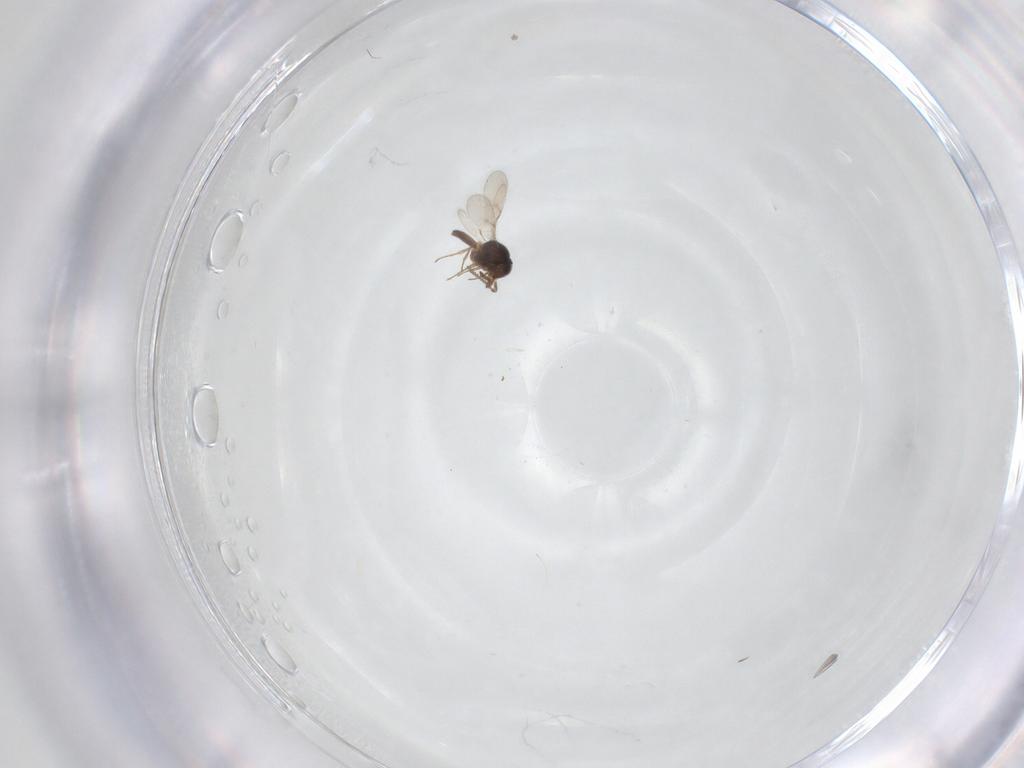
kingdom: Animalia
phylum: Arthropoda
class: Insecta
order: Hymenoptera
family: Scelionidae
